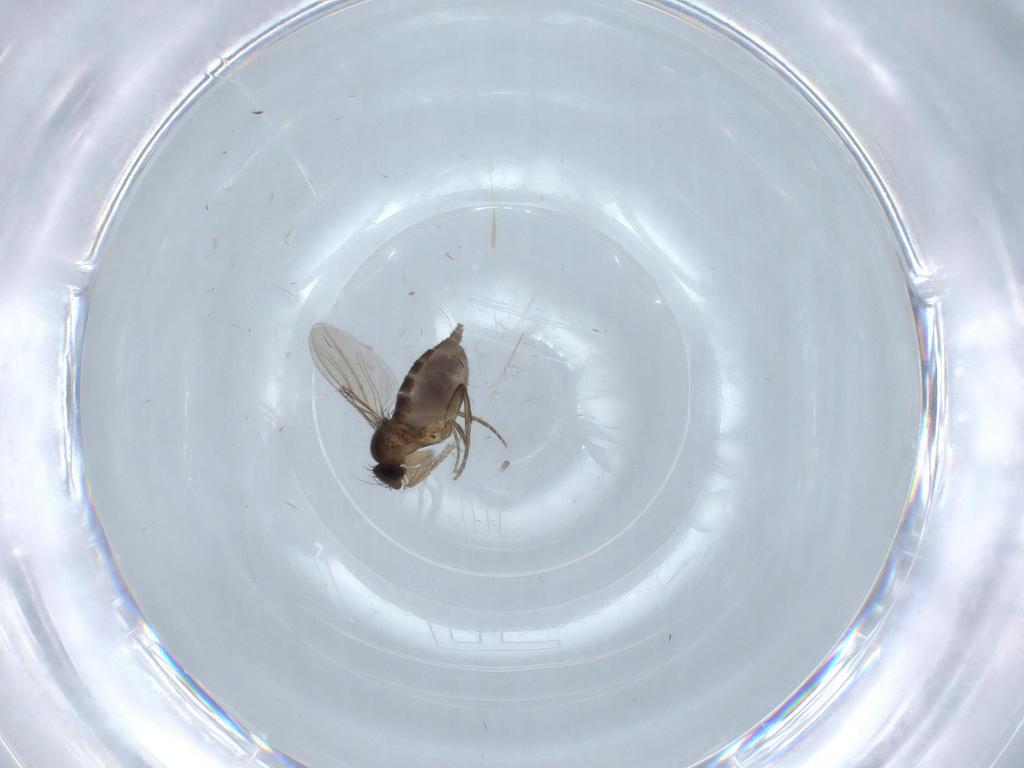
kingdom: Animalia
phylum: Arthropoda
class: Insecta
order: Diptera
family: Phoridae
